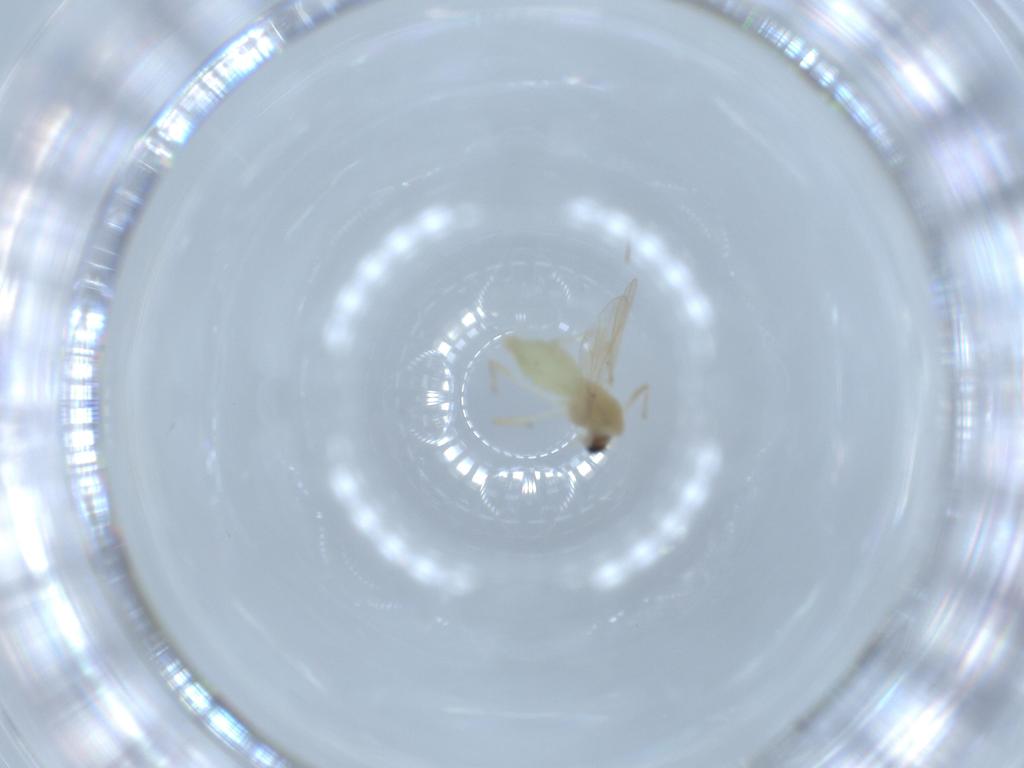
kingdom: Animalia
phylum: Arthropoda
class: Insecta
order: Diptera
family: Chironomidae
